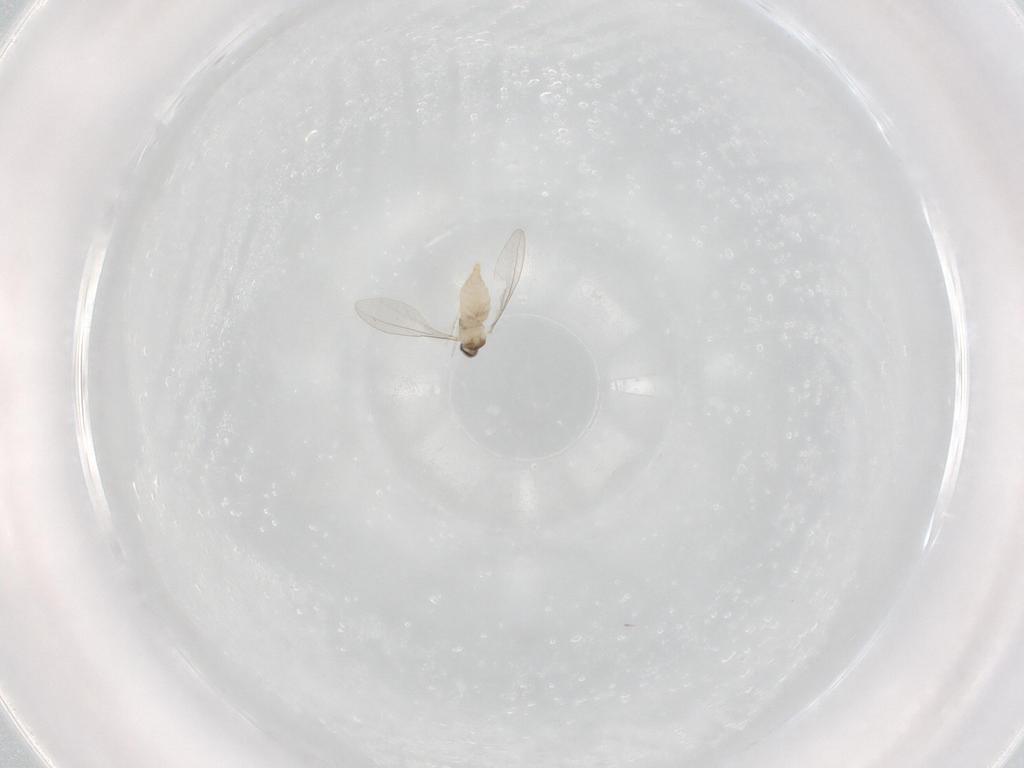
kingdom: Animalia
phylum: Arthropoda
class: Insecta
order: Diptera
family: Cecidomyiidae
